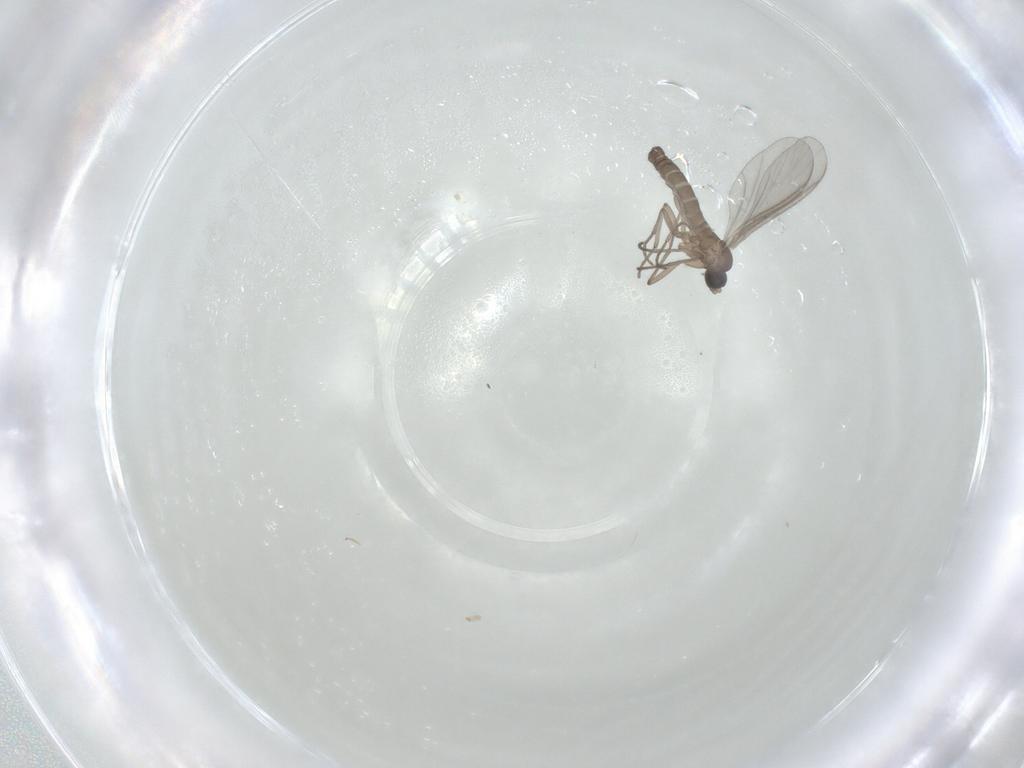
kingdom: Animalia
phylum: Arthropoda
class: Insecta
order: Diptera
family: Sciaridae
